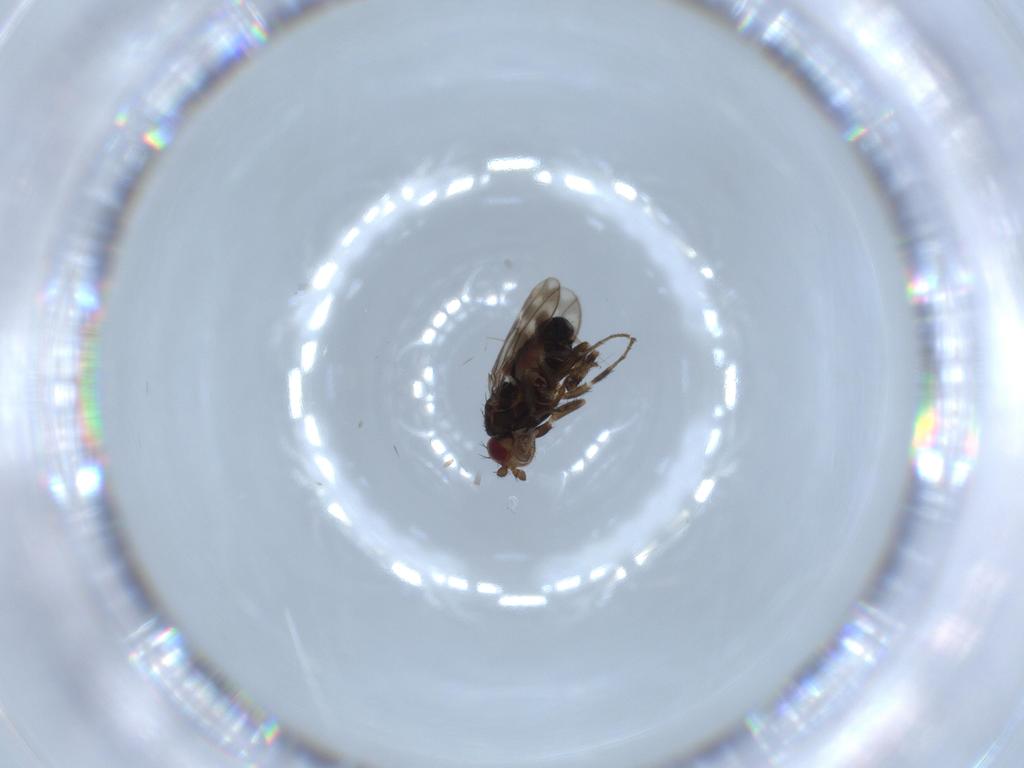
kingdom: Animalia
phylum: Arthropoda
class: Insecta
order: Diptera
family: Sphaeroceridae
